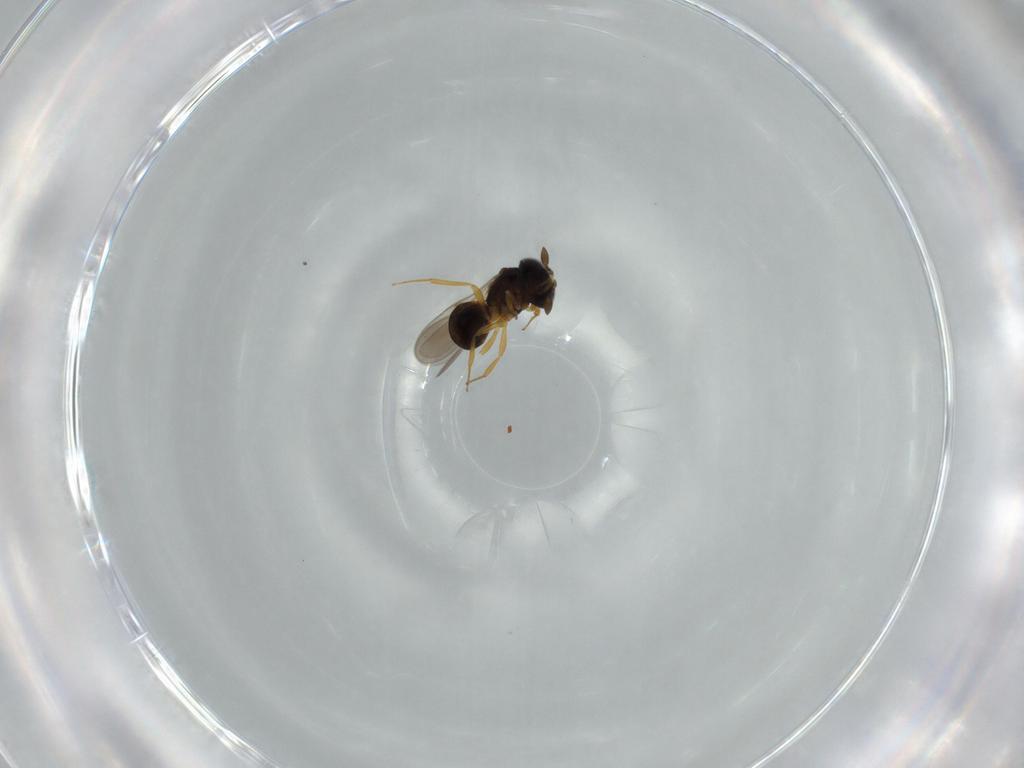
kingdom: Animalia
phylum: Arthropoda
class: Insecta
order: Hymenoptera
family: Scelionidae
